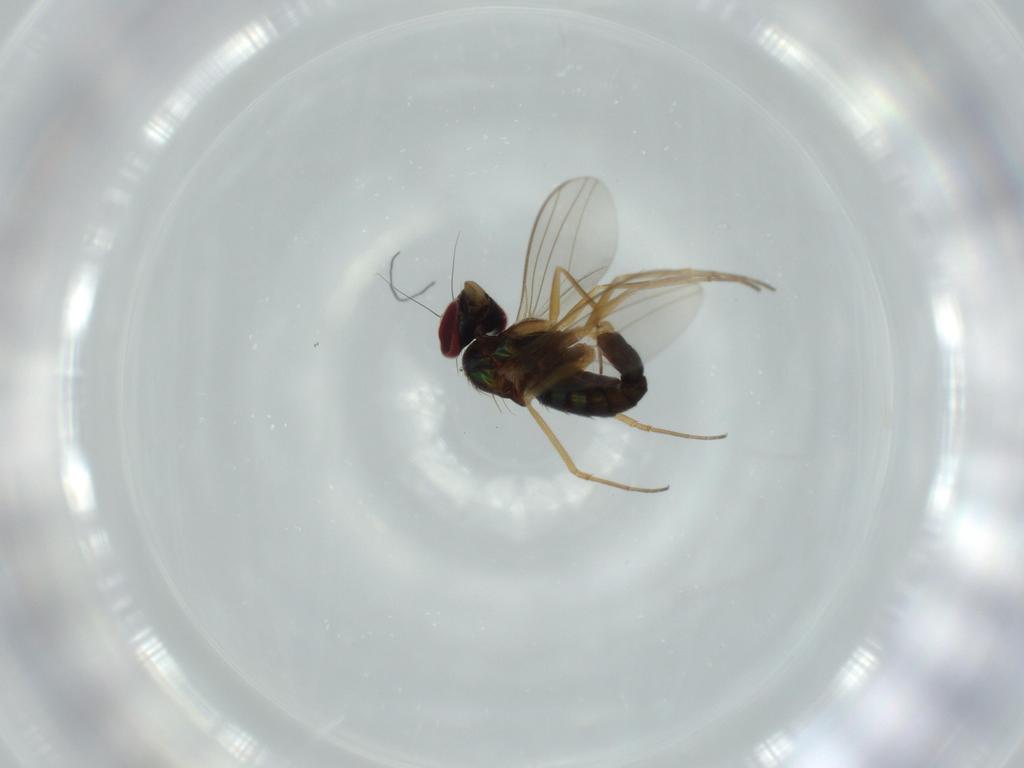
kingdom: Animalia
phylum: Arthropoda
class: Insecta
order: Diptera
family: Dolichopodidae
